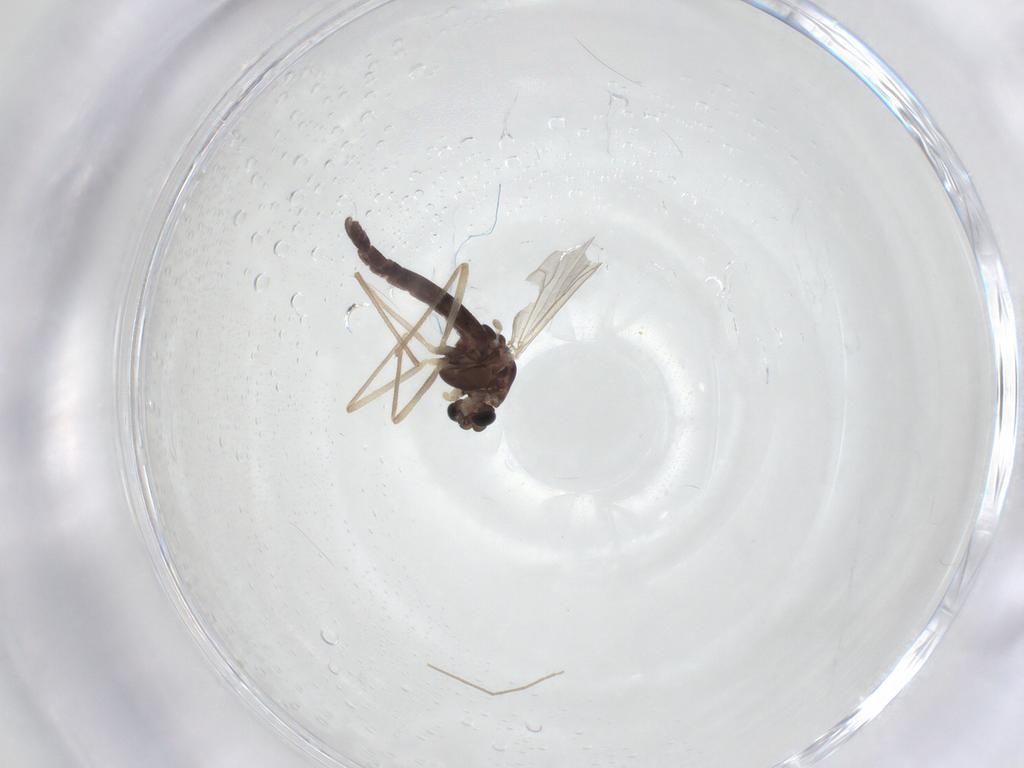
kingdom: Animalia
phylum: Arthropoda
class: Insecta
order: Diptera
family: Chironomidae
